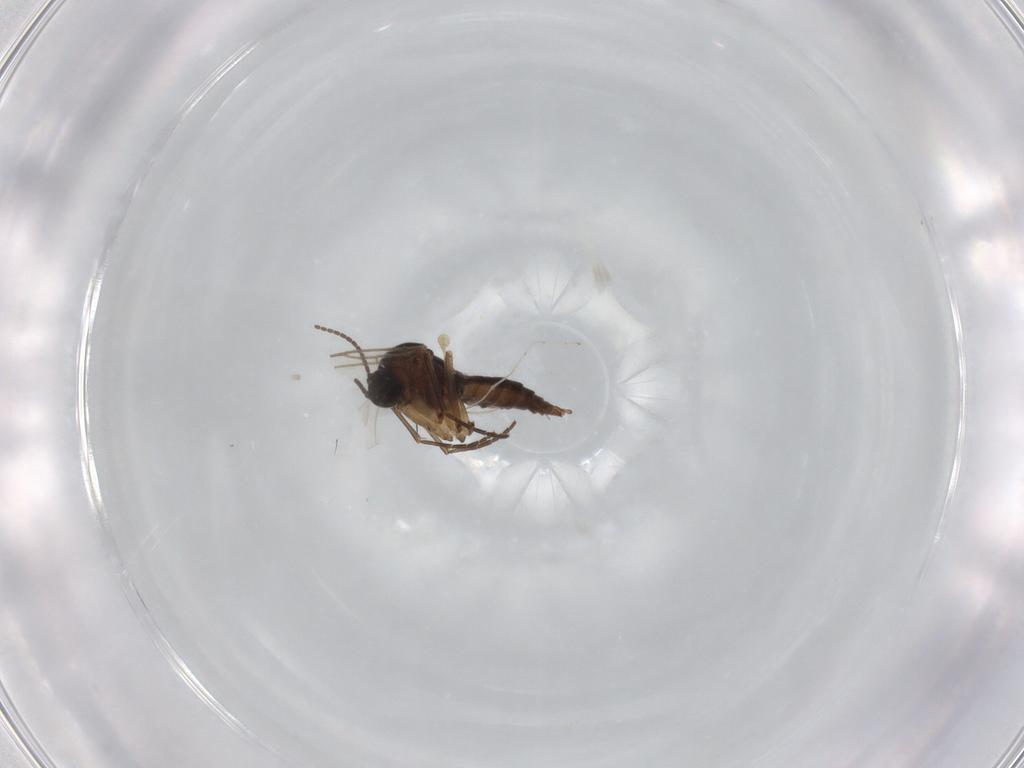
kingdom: Animalia
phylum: Arthropoda
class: Insecta
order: Diptera
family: Sciaridae
